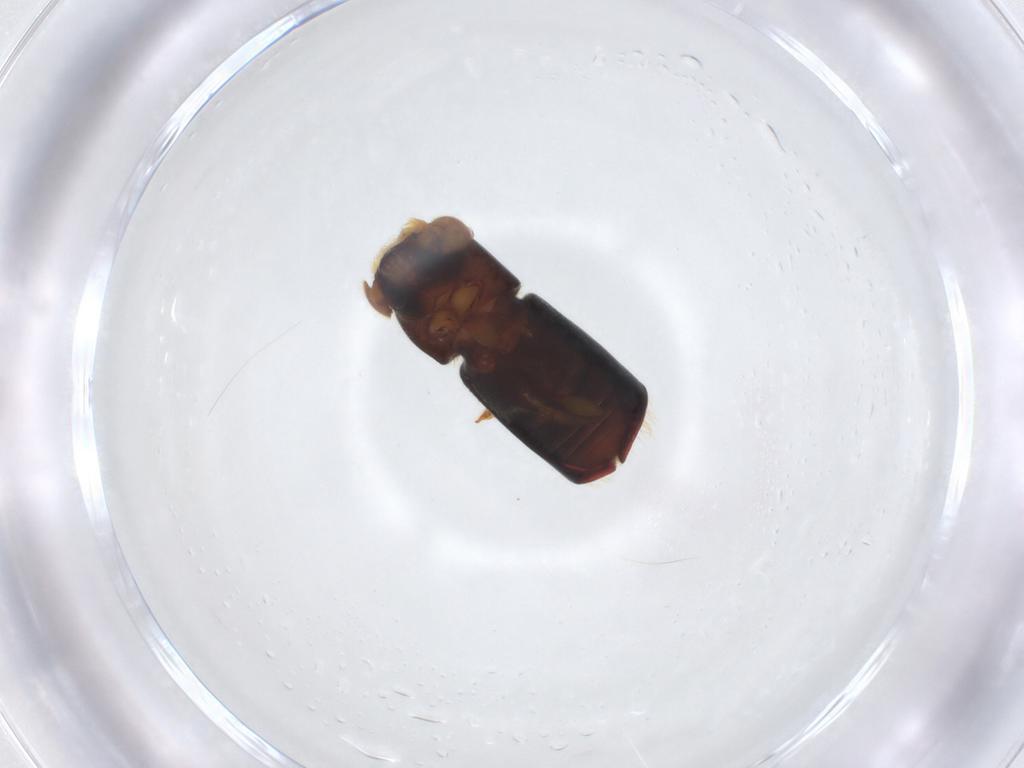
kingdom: Animalia
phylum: Arthropoda
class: Insecta
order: Coleoptera
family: Curculionidae
